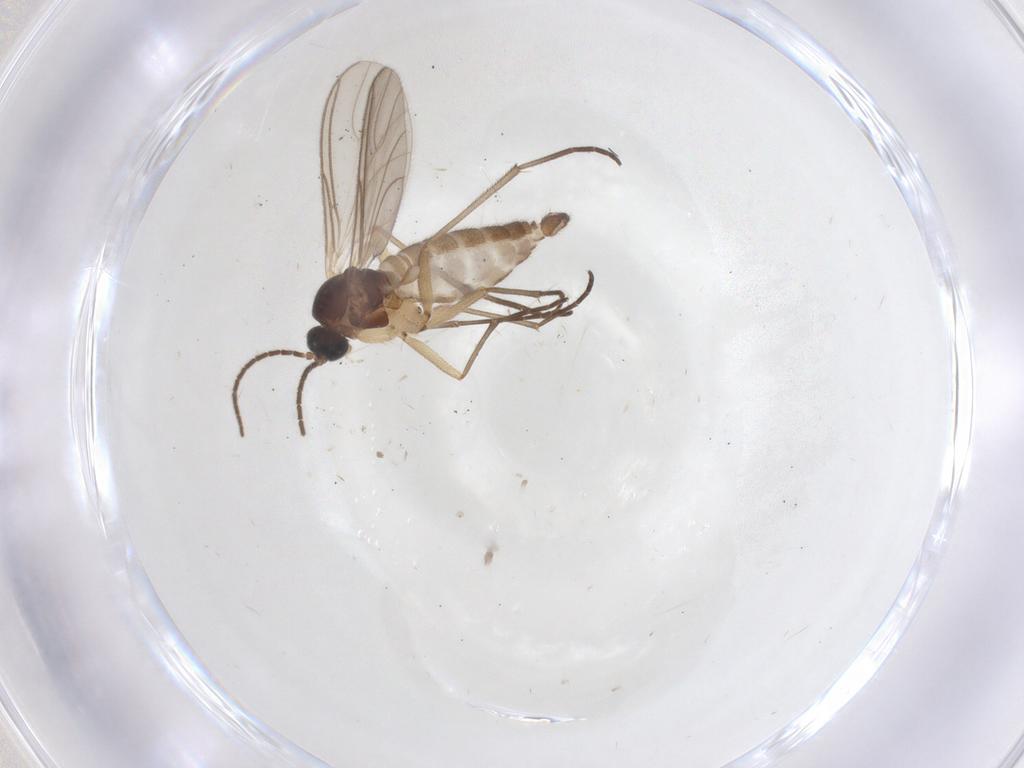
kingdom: Animalia
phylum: Arthropoda
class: Insecta
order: Diptera
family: Sciaridae
